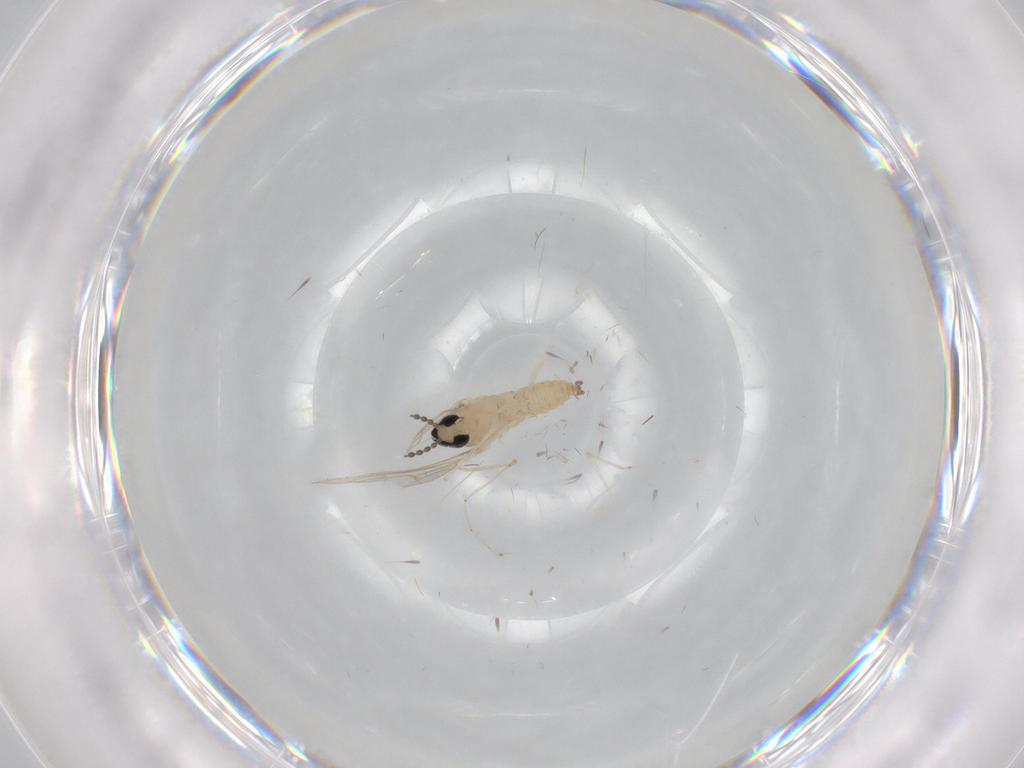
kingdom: Animalia
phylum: Arthropoda
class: Insecta
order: Diptera
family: Cecidomyiidae
